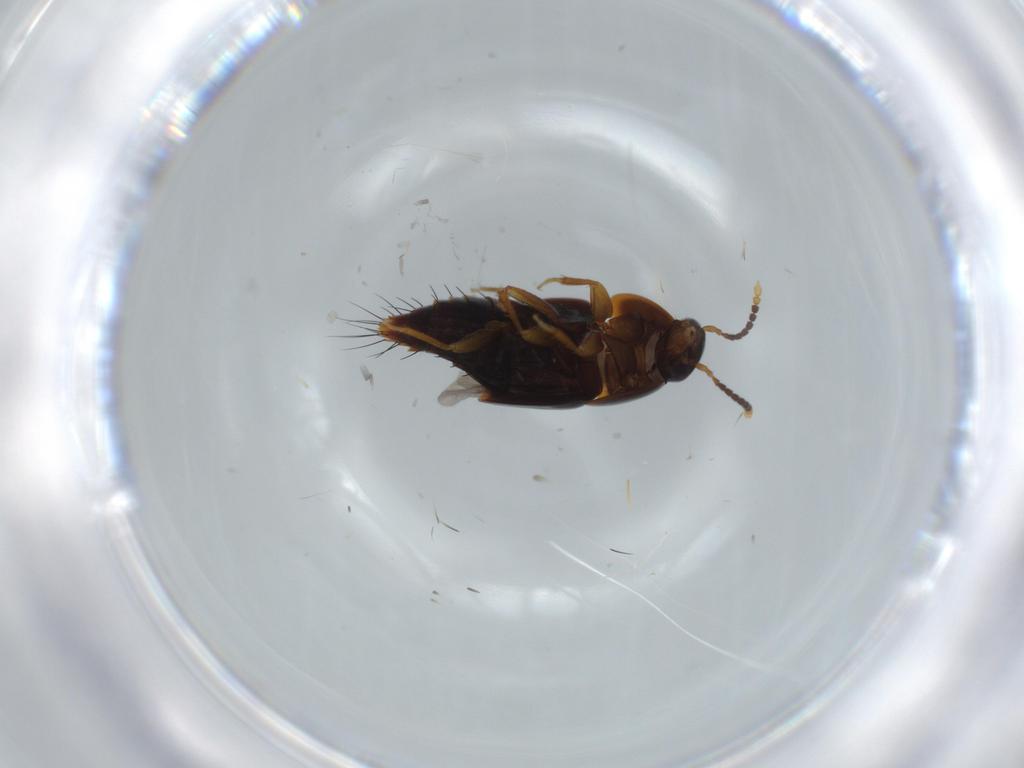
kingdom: Animalia
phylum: Arthropoda
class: Insecta
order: Coleoptera
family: Staphylinidae
